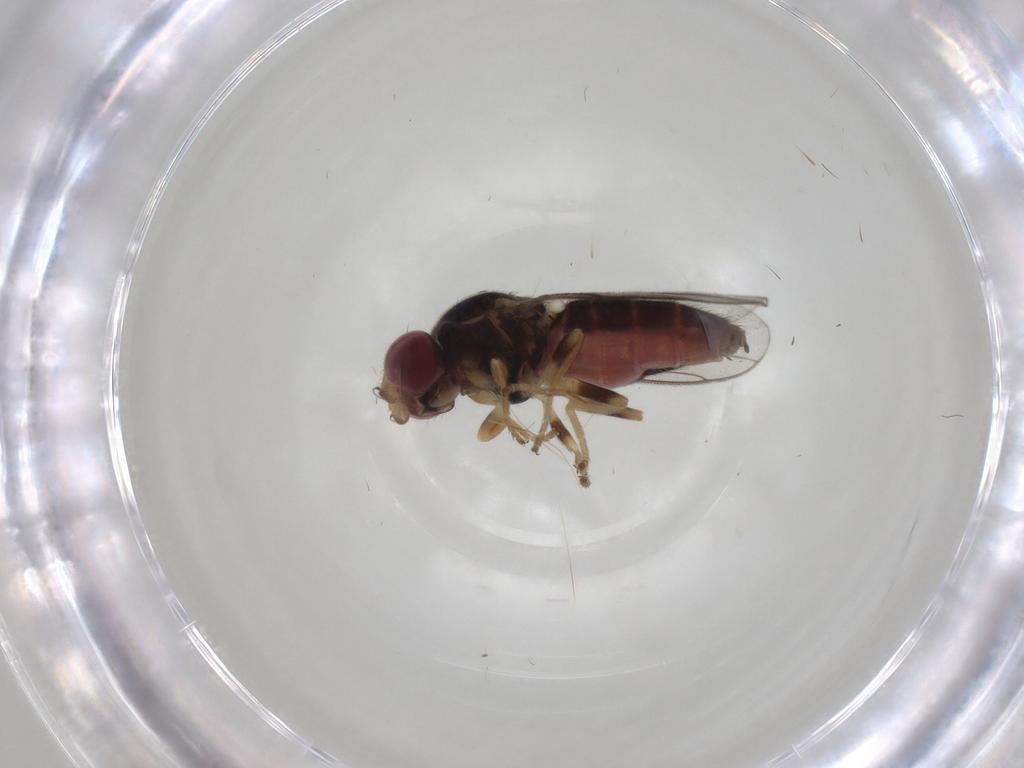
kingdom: Animalia
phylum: Arthropoda
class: Insecta
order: Diptera
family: Chloropidae
